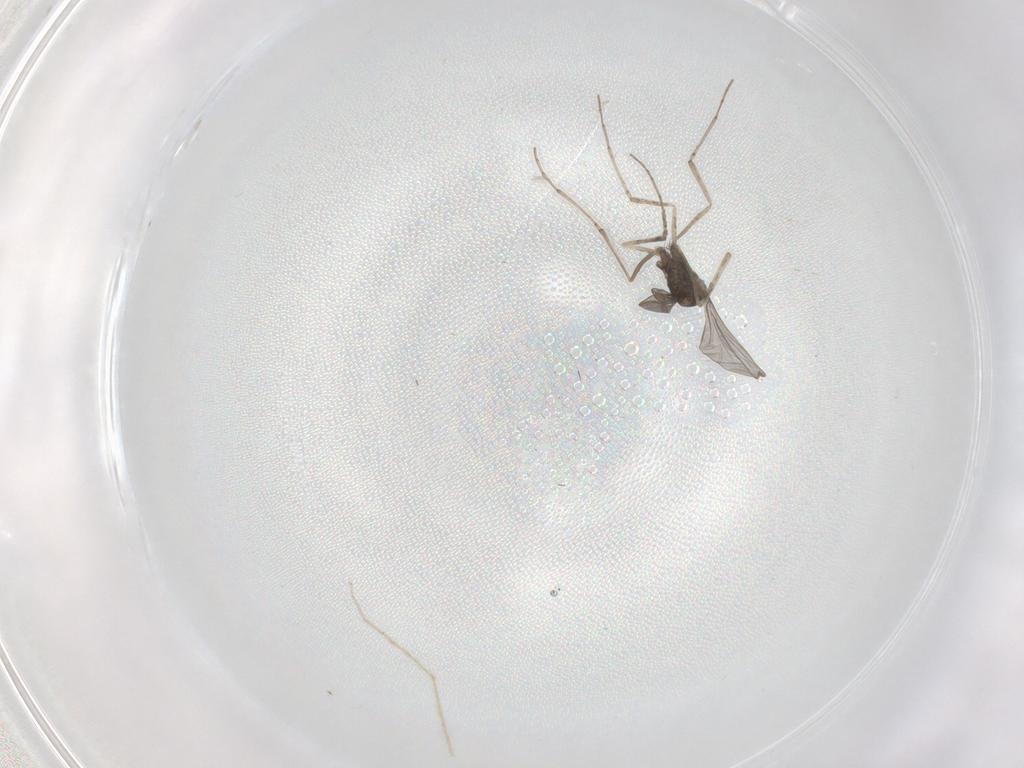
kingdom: Animalia
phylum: Arthropoda
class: Insecta
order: Diptera
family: Cecidomyiidae
